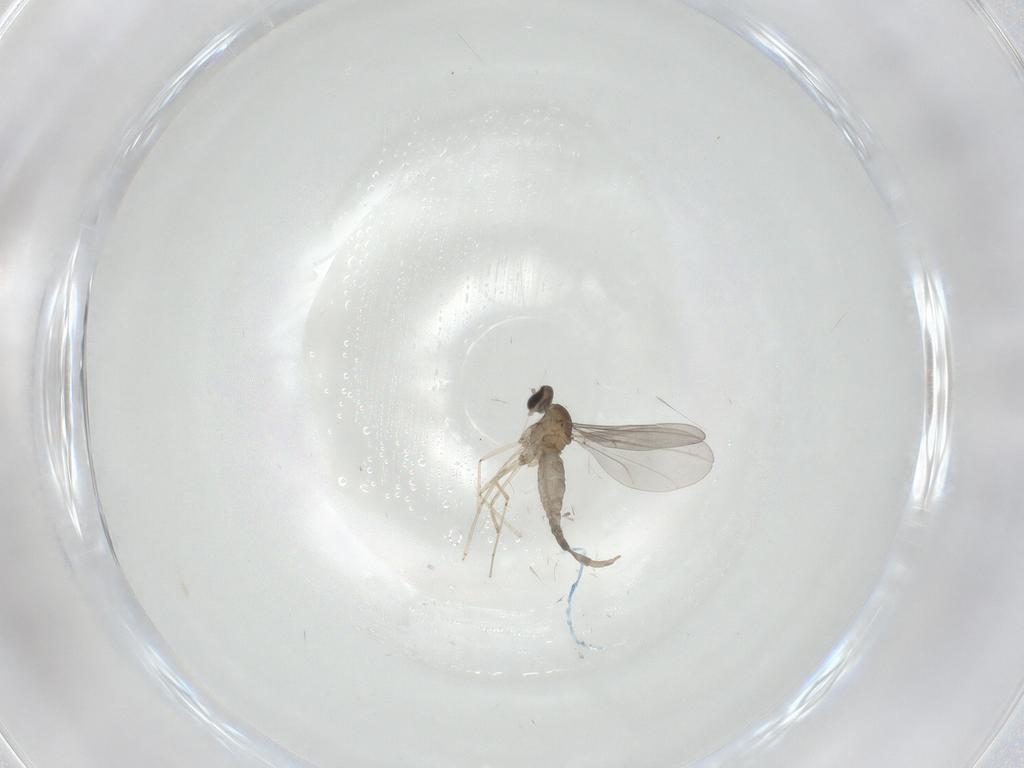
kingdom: Animalia
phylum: Arthropoda
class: Insecta
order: Diptera
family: Cecidomyiidae
